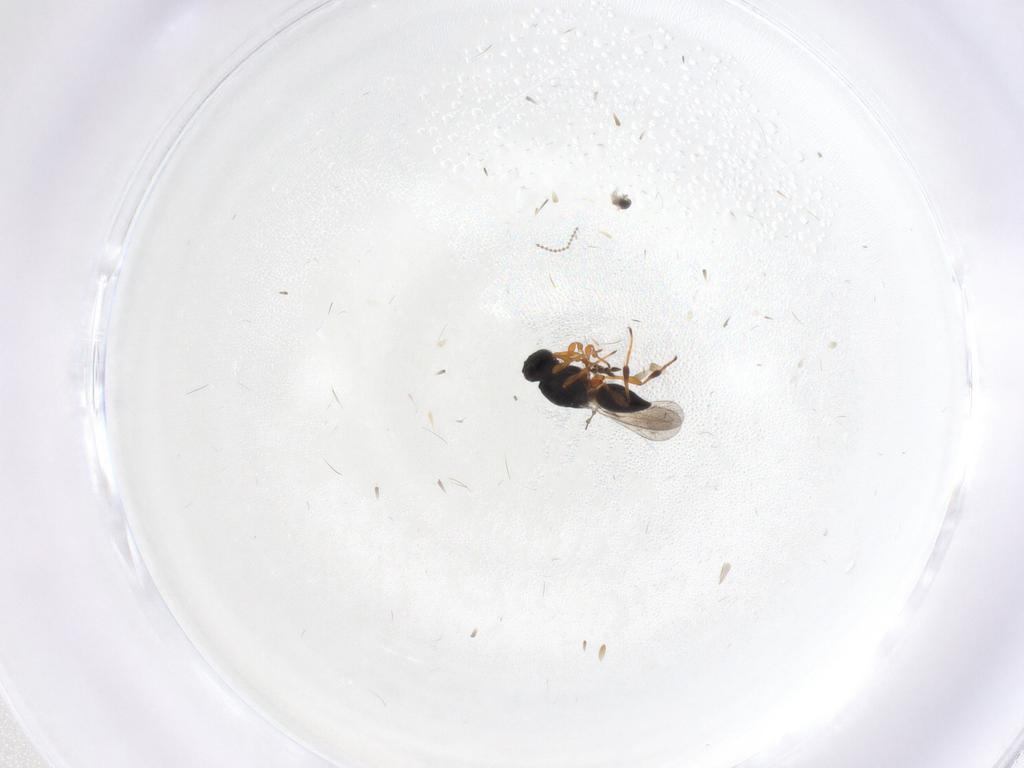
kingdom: Animalia
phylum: Arthropoda
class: Insecta
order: Hymenoptera
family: Platygastridae
